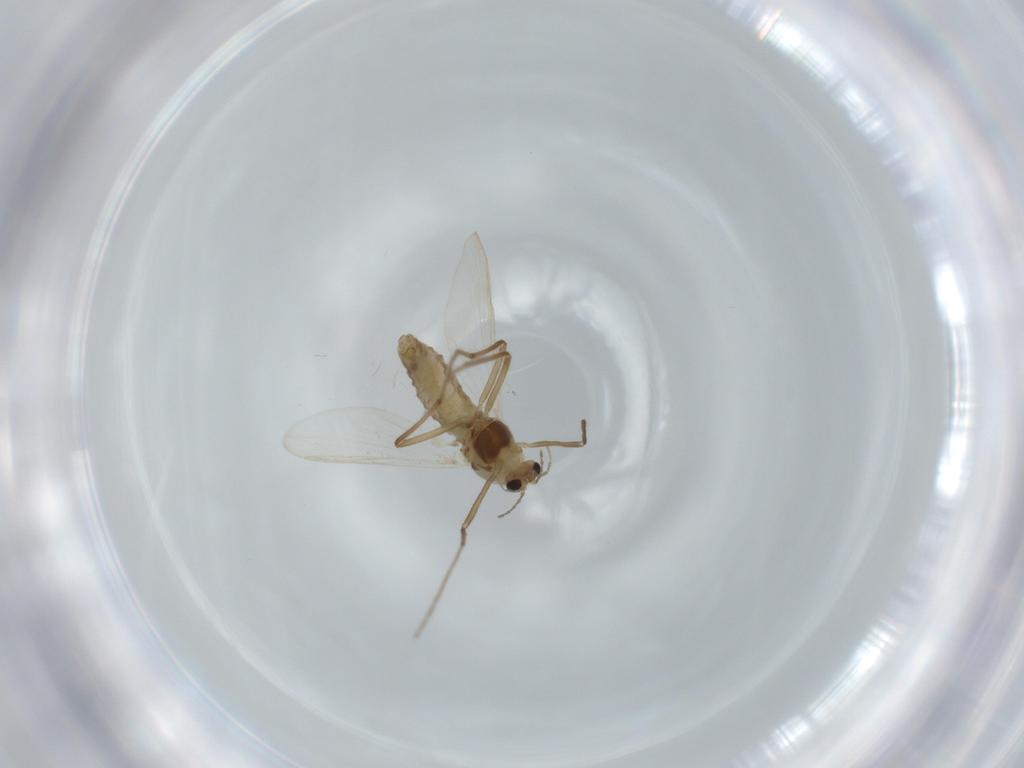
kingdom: Animalia
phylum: Arthropoda
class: Insecta
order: Diptera
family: Chironomidae
